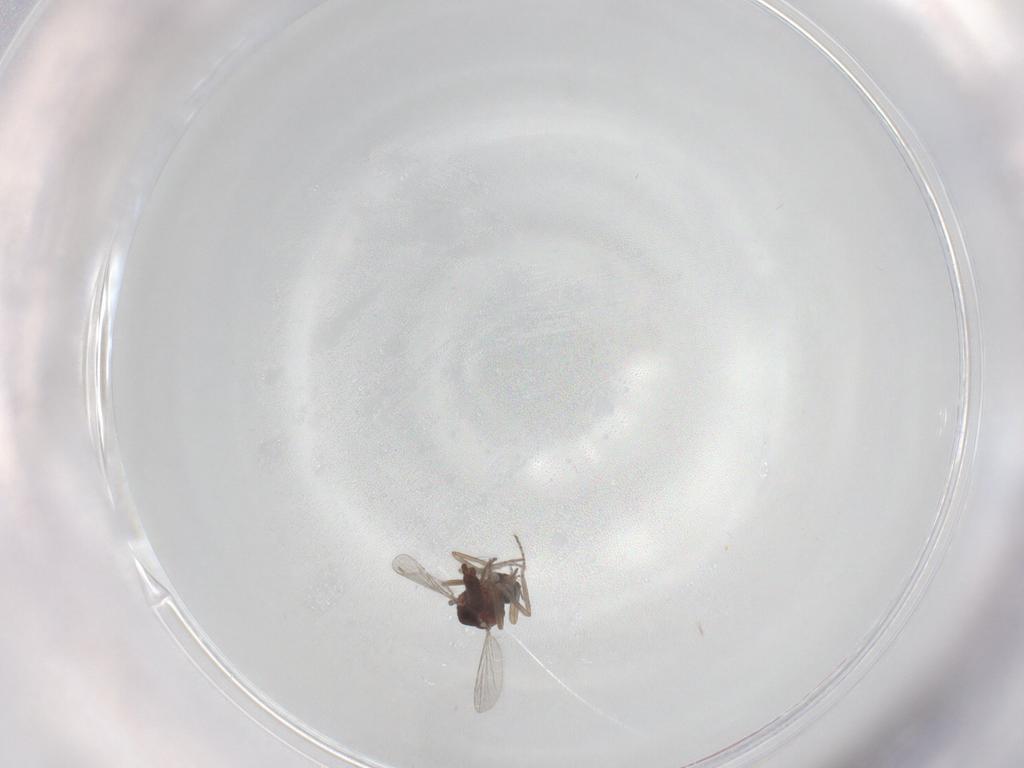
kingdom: Animalia
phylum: Arthropoda
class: Insecta
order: Diptera
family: Ceratopogonidae
